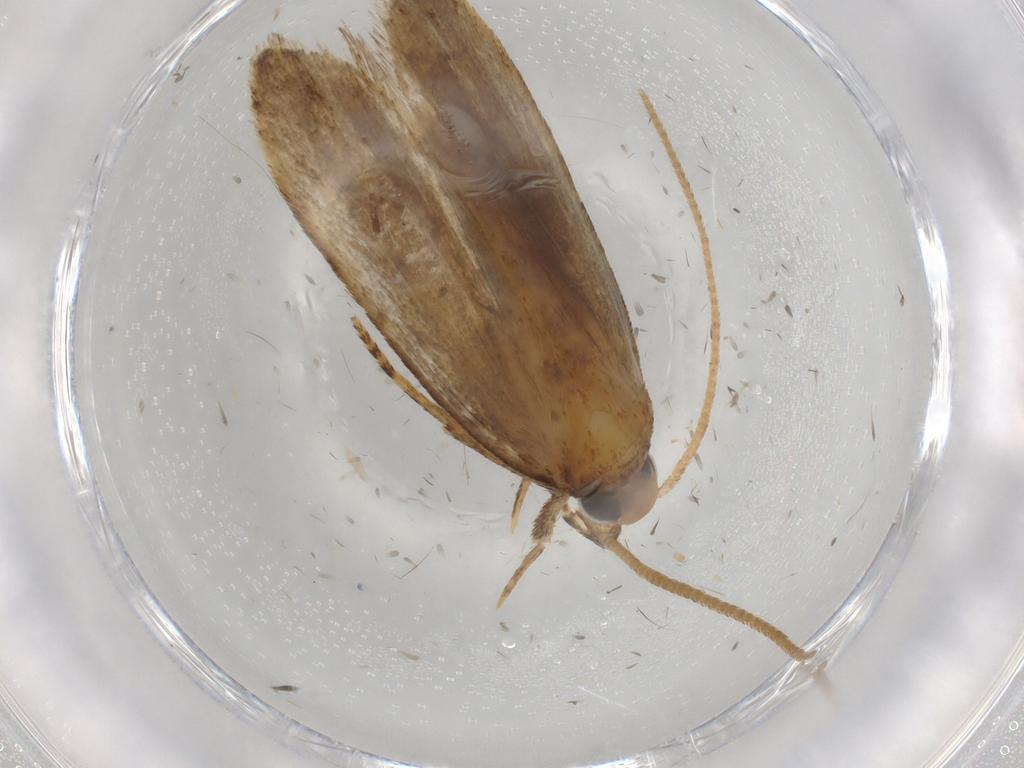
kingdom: Animalia
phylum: Arthropoda
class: Insecta
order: Lepidoptera
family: Autostichidae
